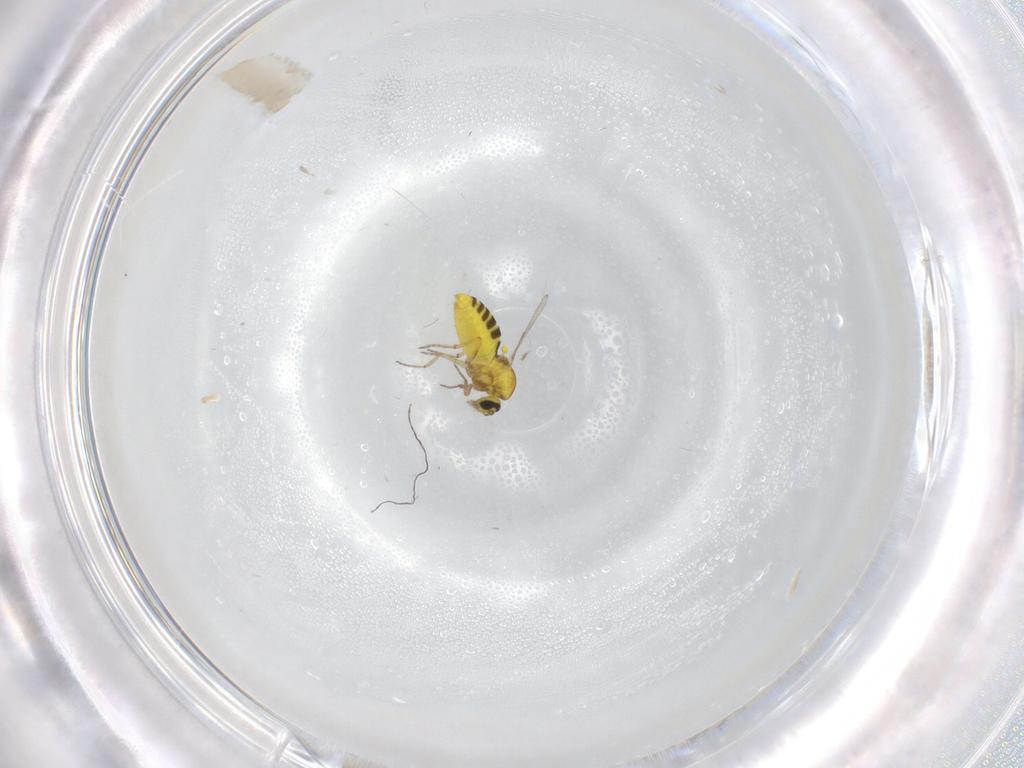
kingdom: Animalia
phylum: Arthropoda
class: Insecta
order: Diptera
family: Ceratopogonidae
